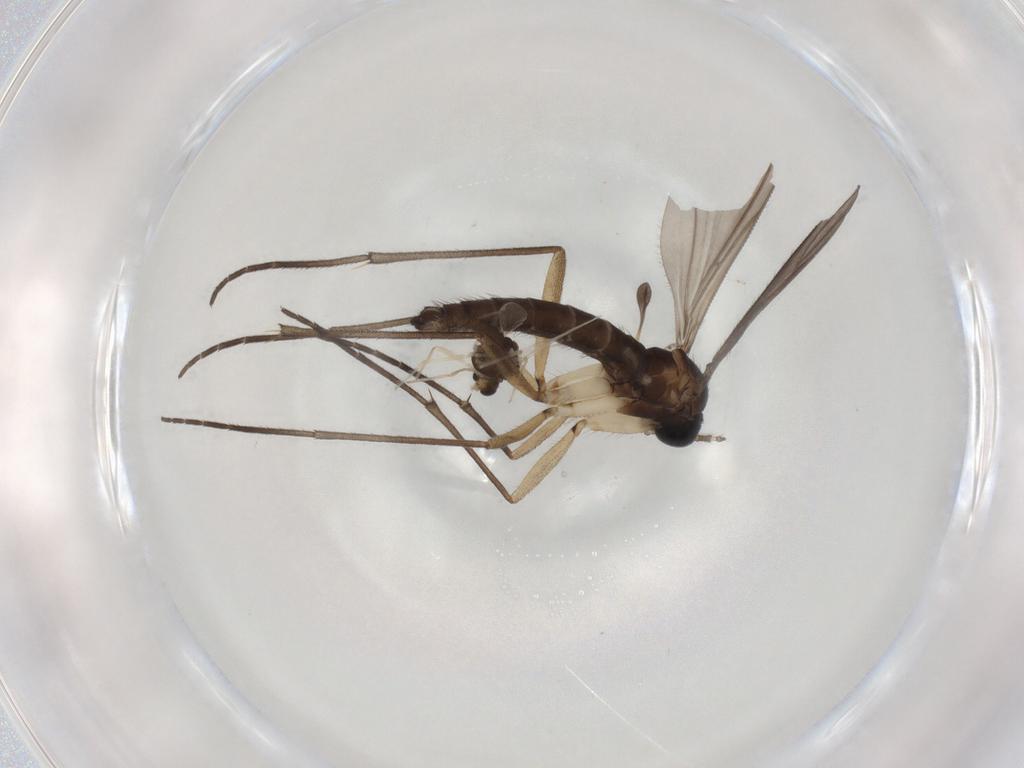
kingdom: Animalia
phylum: Arthropoda
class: Insecta
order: Diptera
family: Sciaridae
